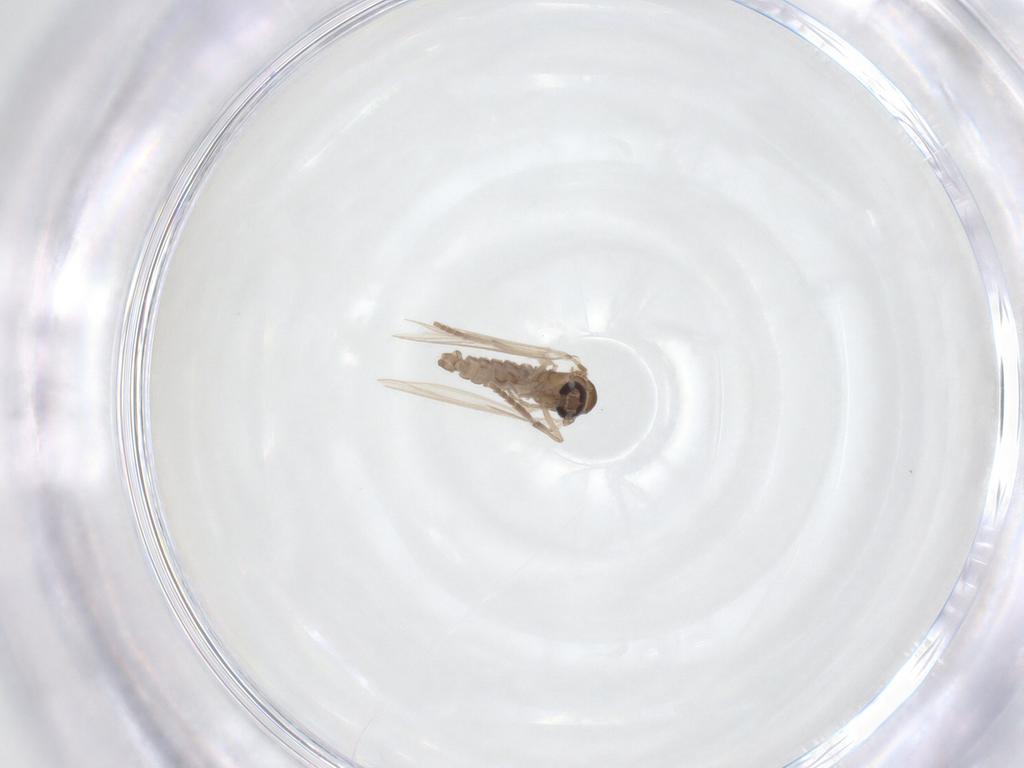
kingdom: Animalia
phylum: Arthropoda
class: Insecta
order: Diptera
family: Psychodidae
